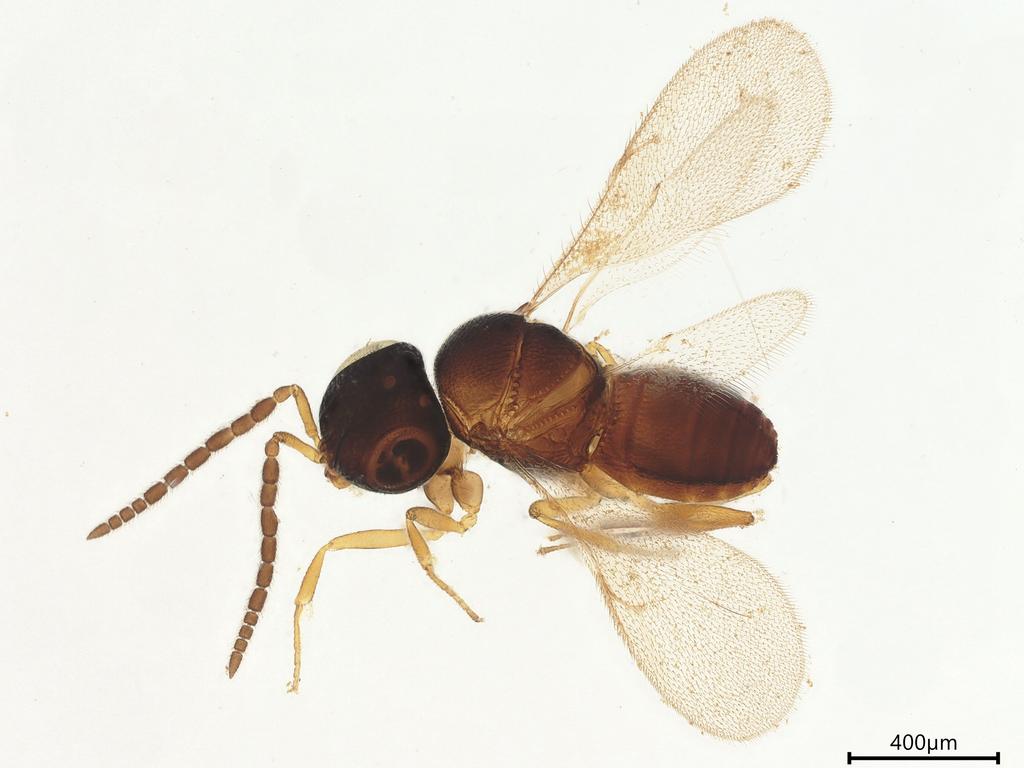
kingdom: Animalia
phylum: Arthropoda
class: Insecta
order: Coleoptera
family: Curculionidae
